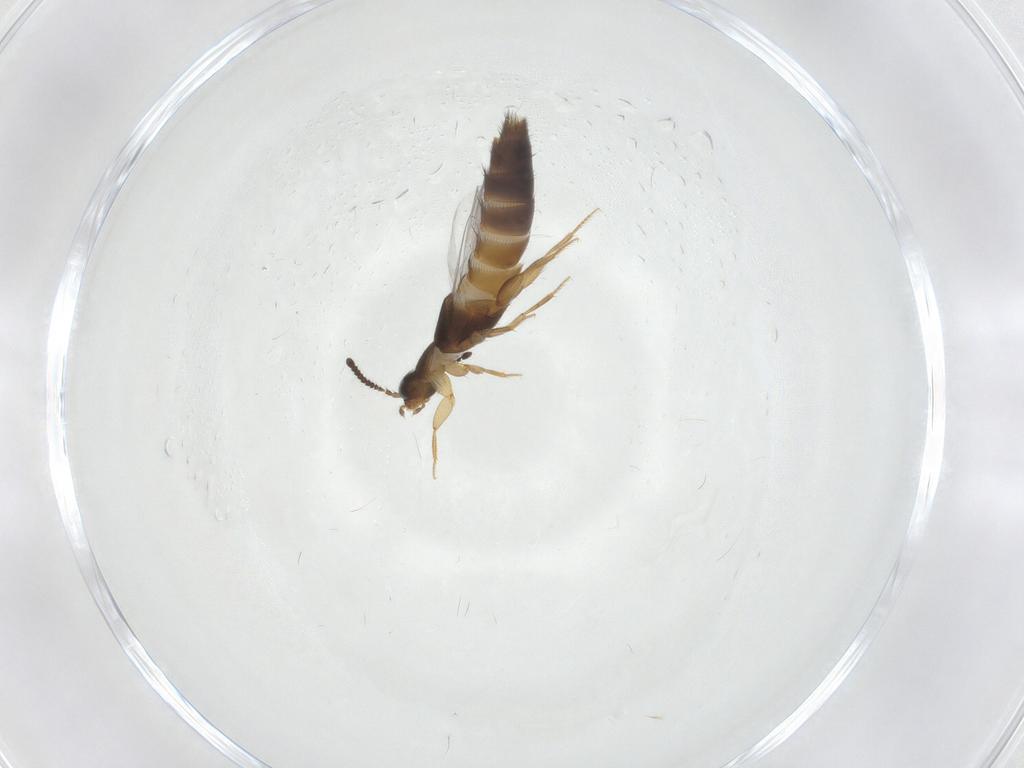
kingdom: Animalia
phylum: Arthropoda
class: Insecta
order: Coleoptera
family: Staphylinidae
